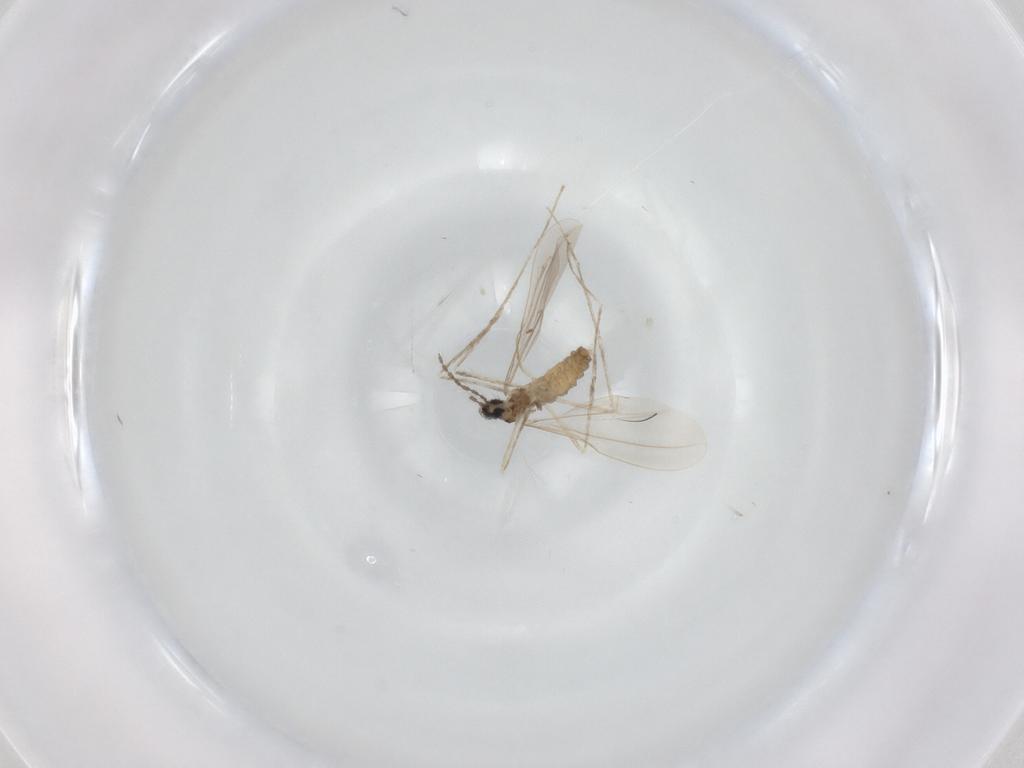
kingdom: Animalia
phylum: Arthropoda
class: Insecta
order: Diptera
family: Cecidomyiidae
